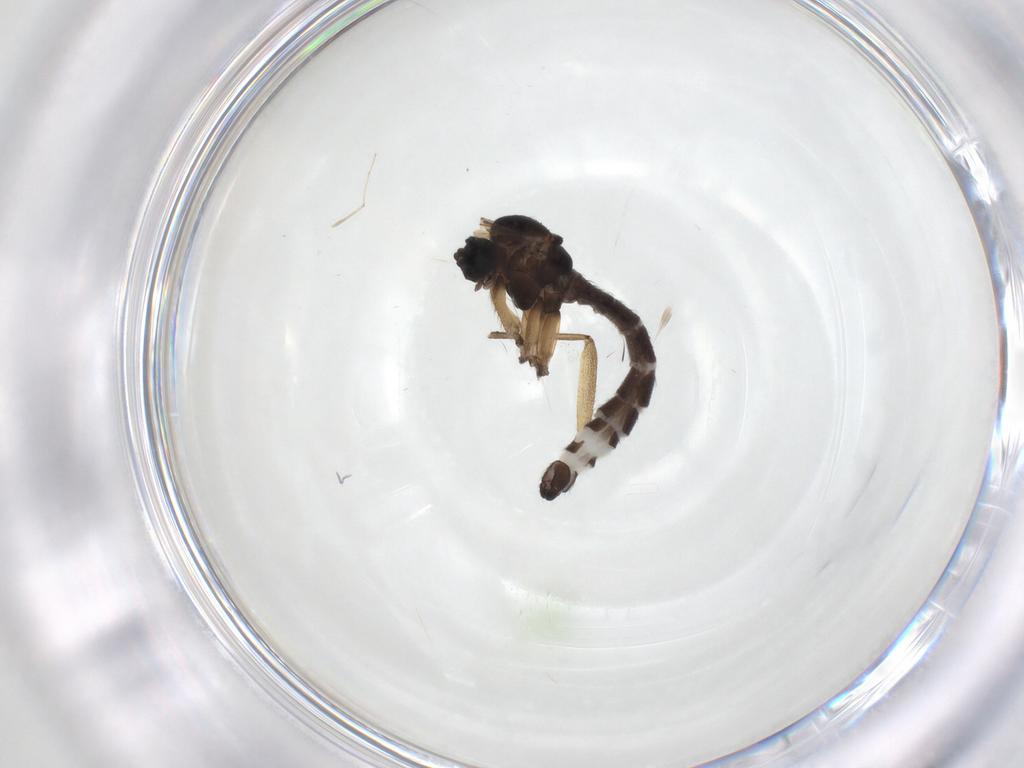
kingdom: Animalia
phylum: Arthropoda
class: Insecta
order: Diptera
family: Sciaridae
